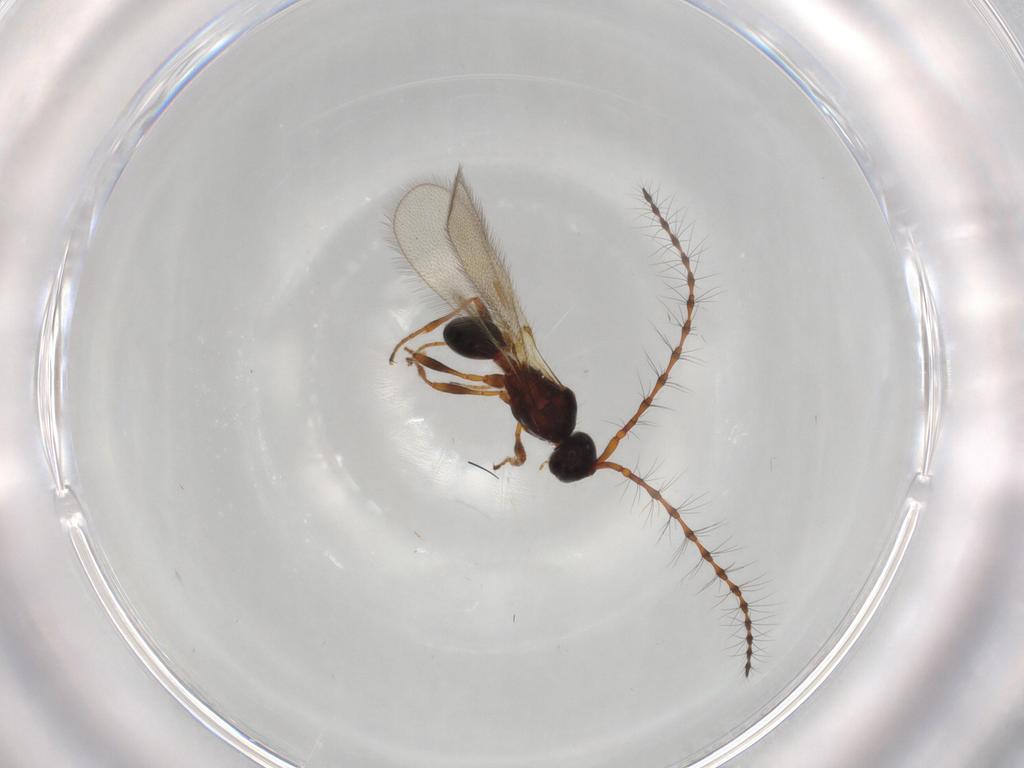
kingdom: Animalia
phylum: Arthropoda
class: Insecta
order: Hymenoptera
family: Diapriidae
